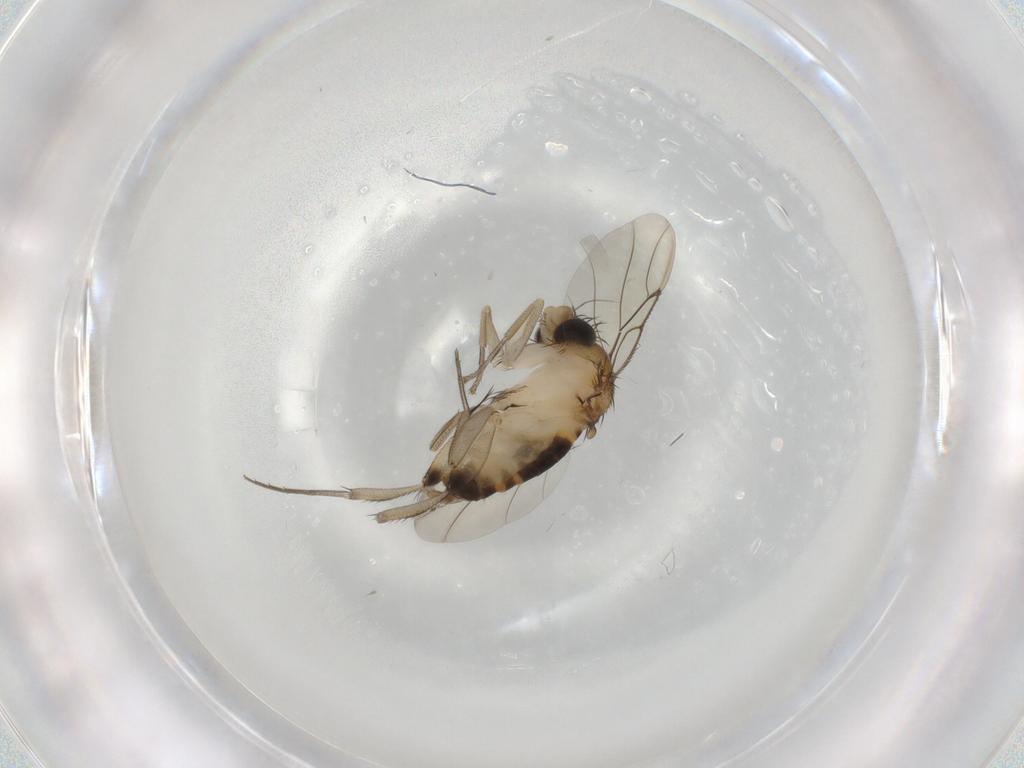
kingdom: Animalia
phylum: Arthropoda
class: Insecta
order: Diptera
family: Phoridae
